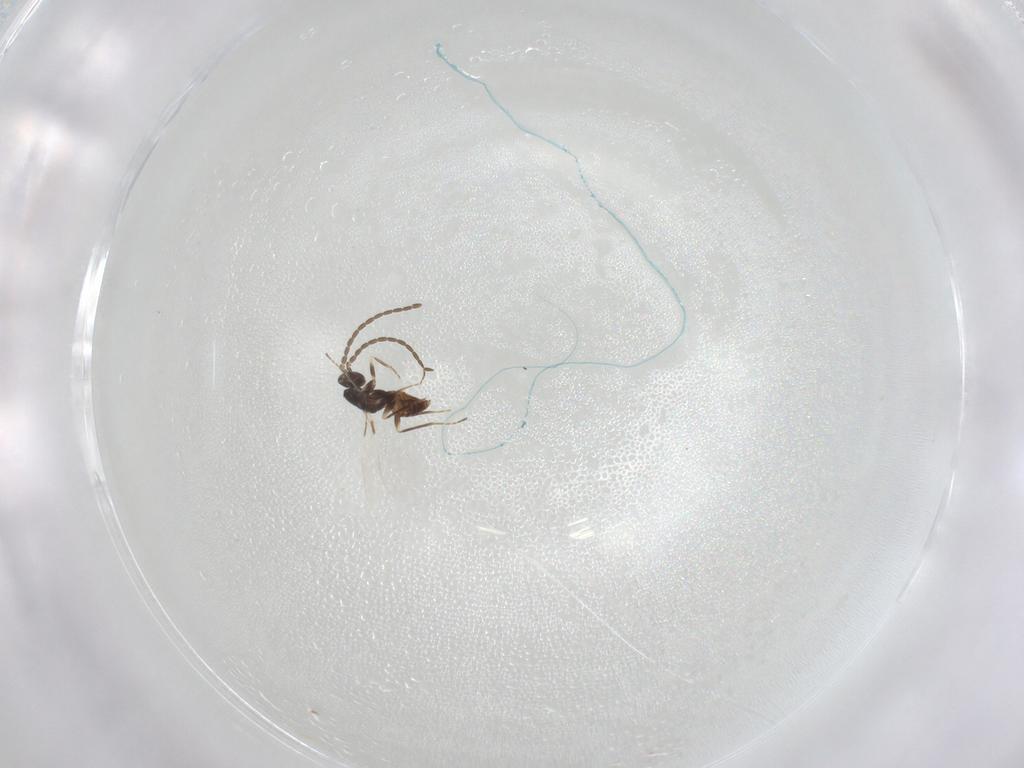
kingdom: Animalia
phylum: Arthropoda
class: Insecta
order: Hymenoptera
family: Mymaridae
